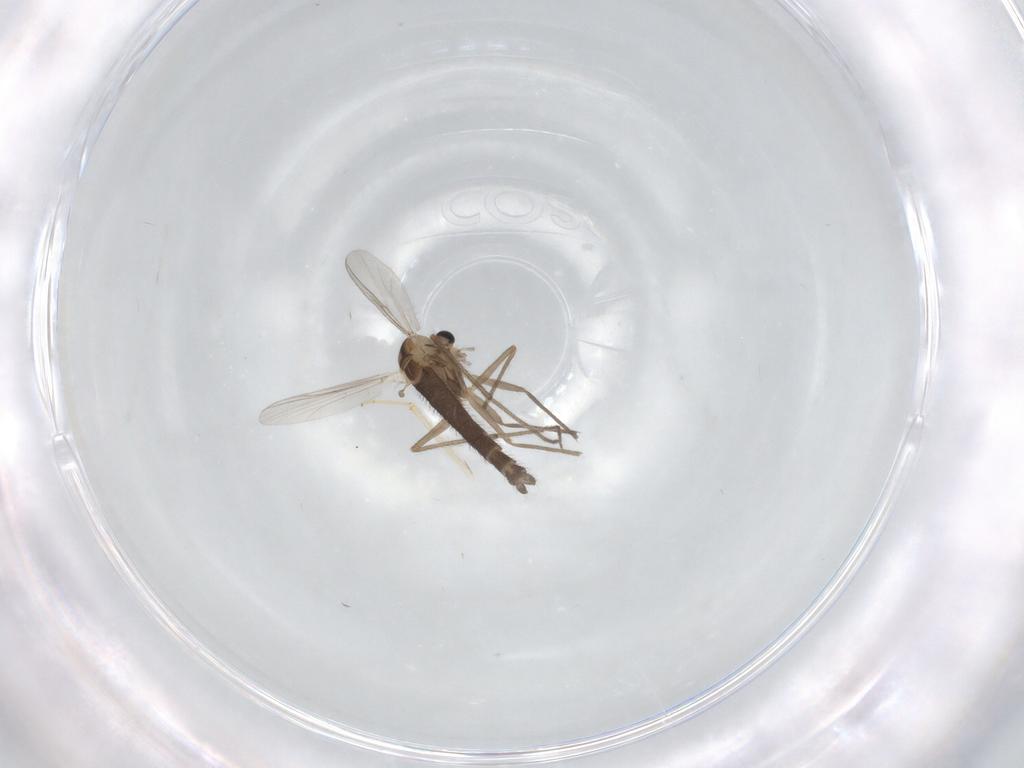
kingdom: Animalia
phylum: Arthropoda
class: Insecta
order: Diptera
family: Chironomidae
